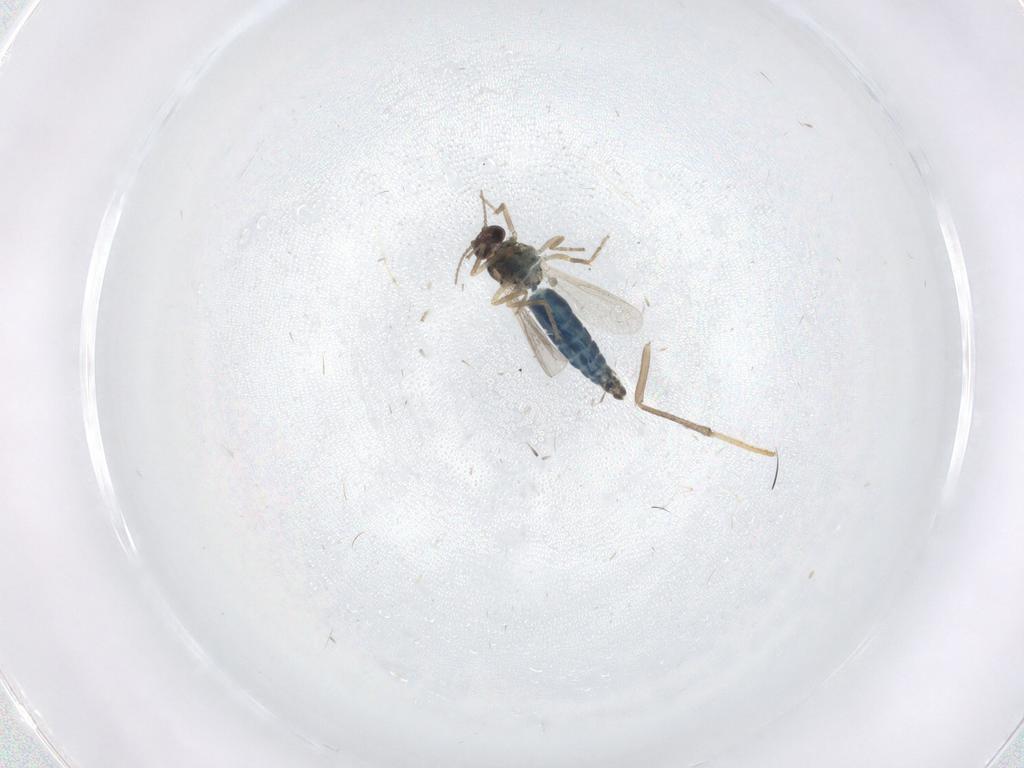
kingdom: Animalia
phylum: Arthropoda
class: Insecta
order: Diptera
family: Ceratopogonidae
